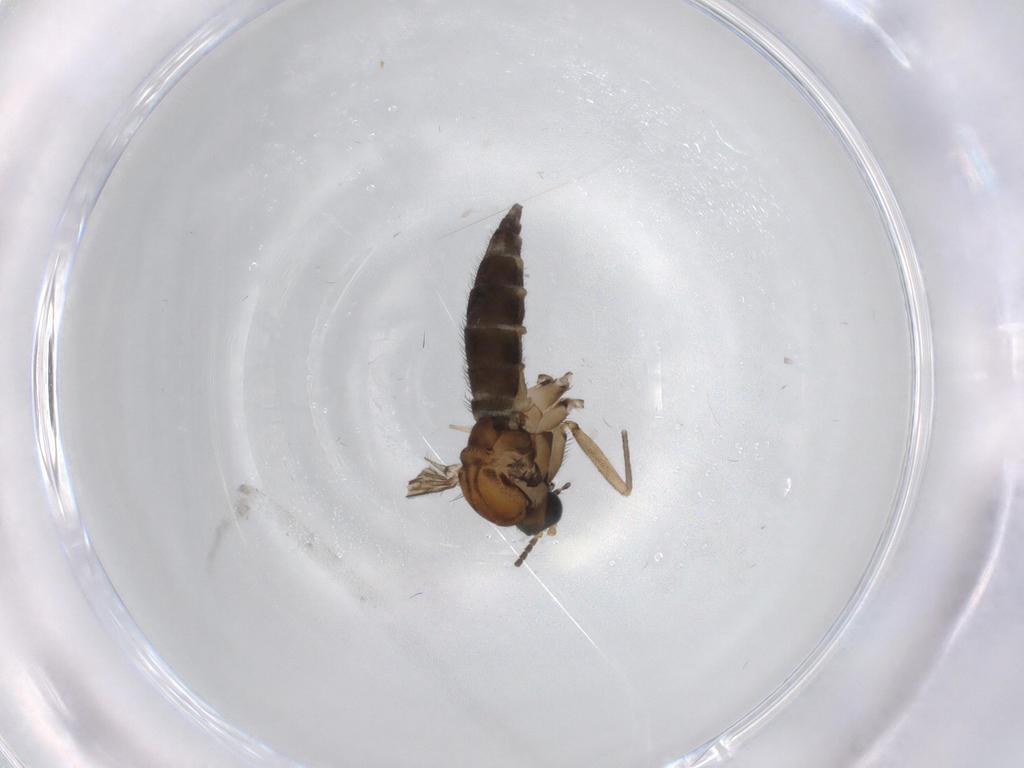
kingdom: Animalia
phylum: Arthropoda
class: Insecta
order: Diptera
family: Sciaridae
